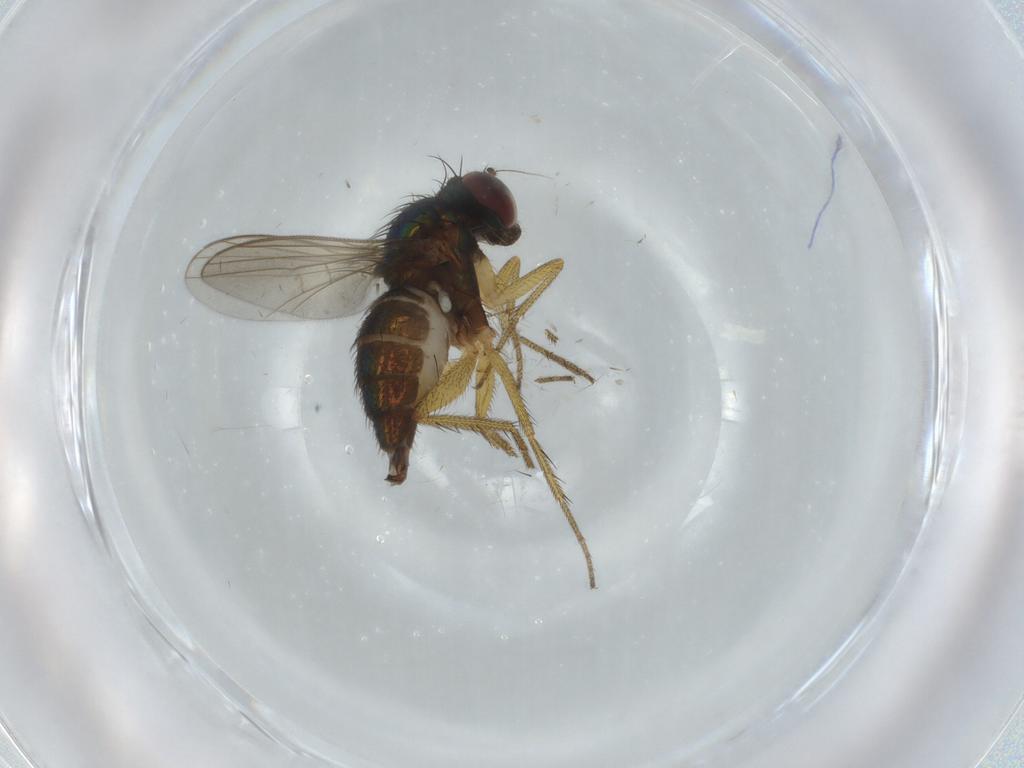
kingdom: Animalia
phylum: Arthropoda
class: Insecta
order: Diptera
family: Dolichopodidae
